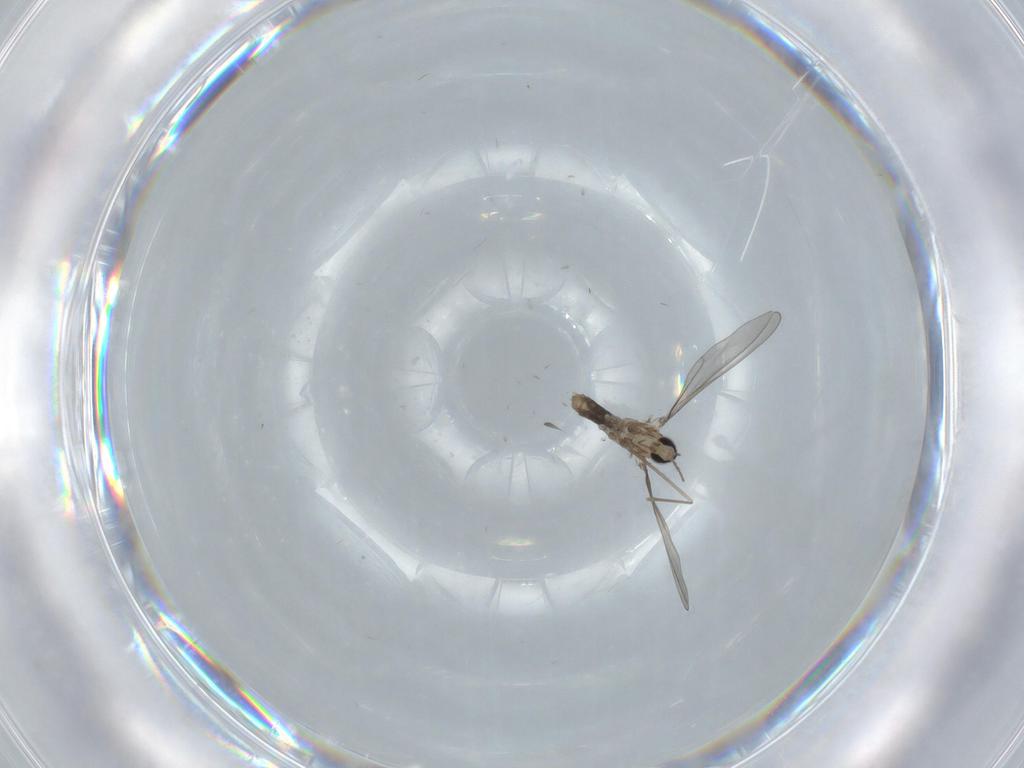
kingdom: Animalia
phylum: Arthropoda
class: Insecta
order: Diptera
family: Cecidomyiidae
